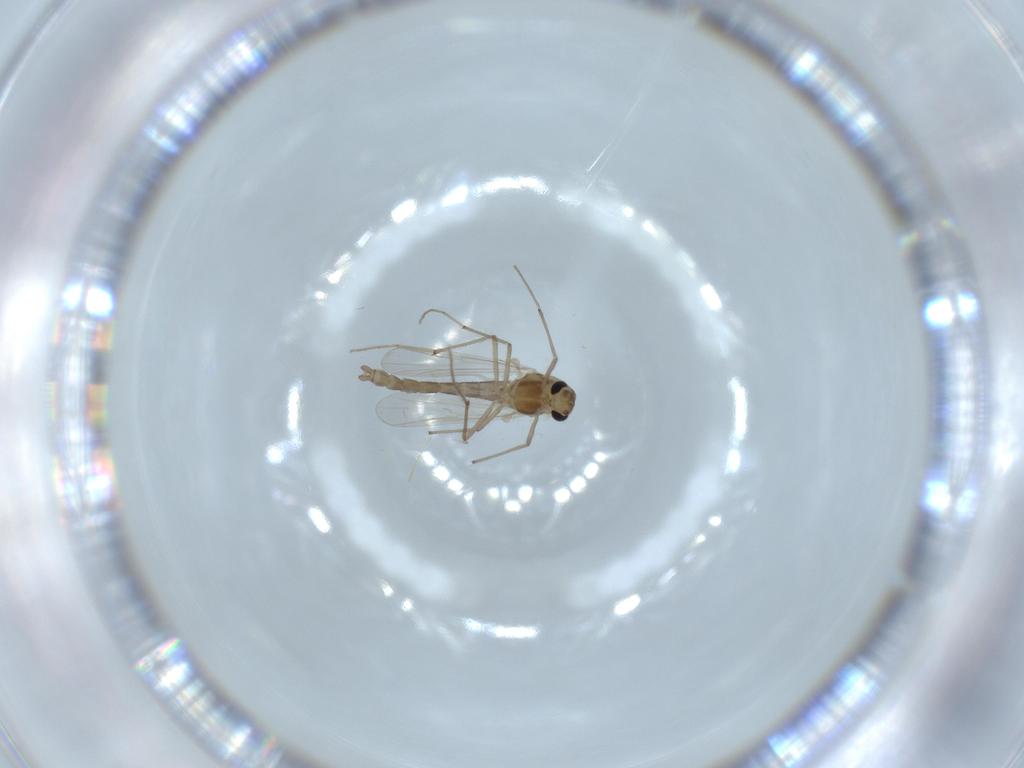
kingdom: Animalia
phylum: Arthropoda
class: Insecta
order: Diptera
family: Chironomidae
